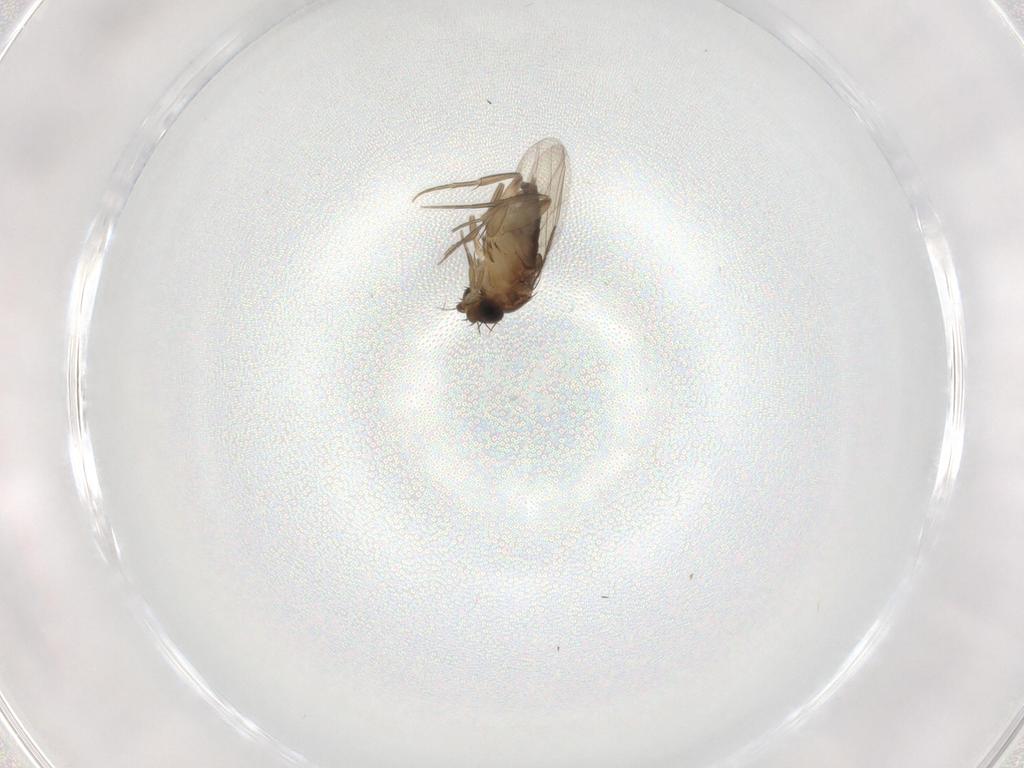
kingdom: Animalia
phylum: Arthropoda
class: Insecta
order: Diptera
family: Phoridae
